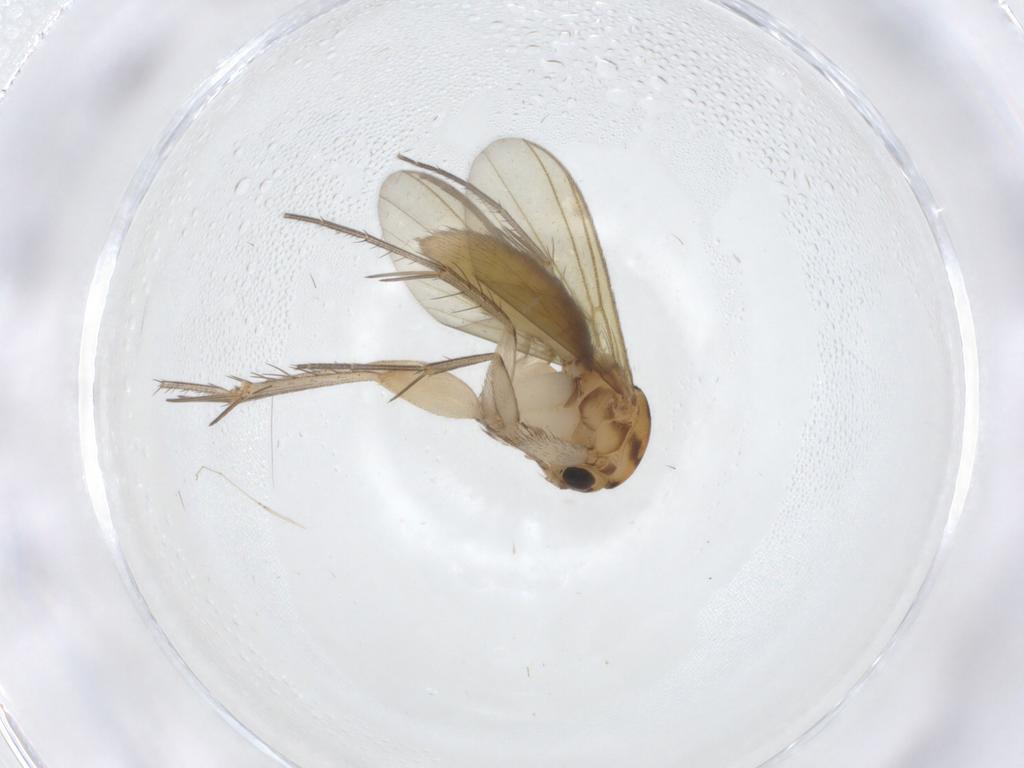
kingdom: Animalia
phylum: Arthropoda
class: Insecta
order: Diptera
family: Mycetophilidae
